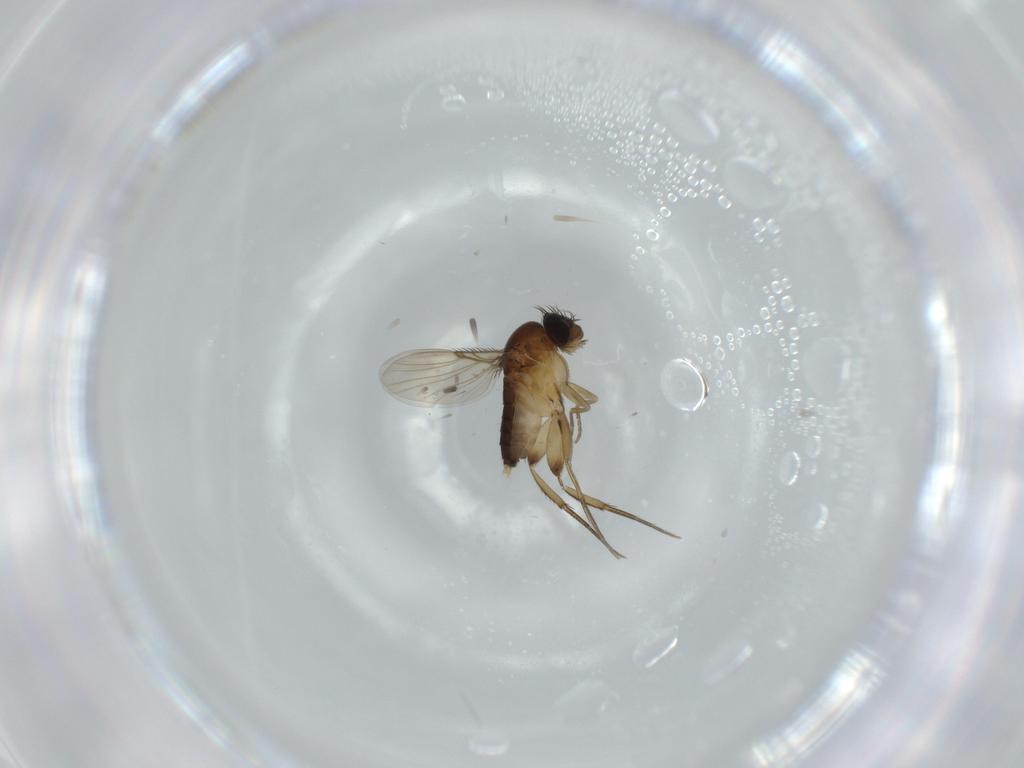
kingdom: Animalia
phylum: Arthropoda
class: Insecta
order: Diptera
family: Phoridae
